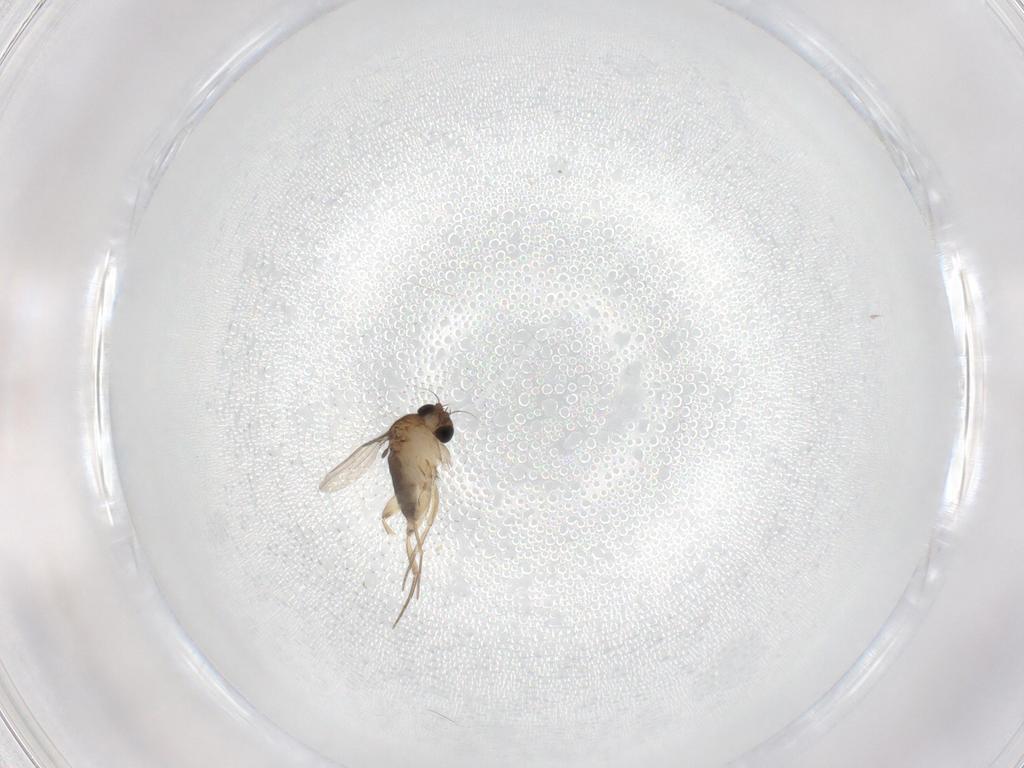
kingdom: Animalia
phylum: Arthropoda
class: Insecta
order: Diptera
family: Phoridae
